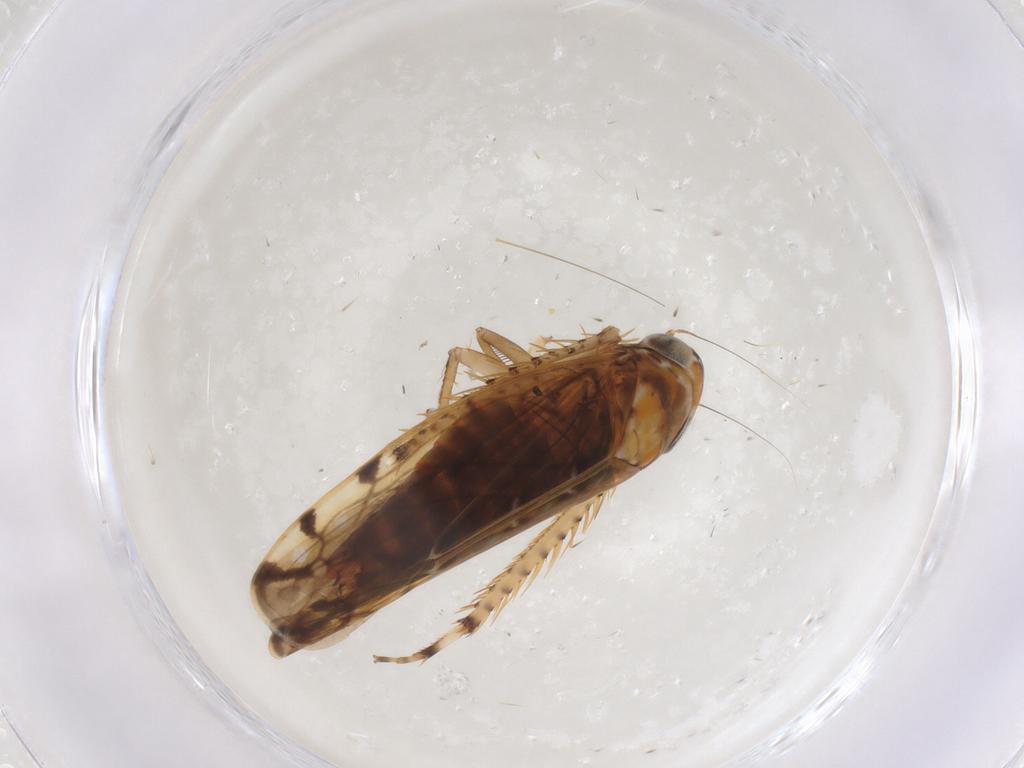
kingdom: Animalia
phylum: Arthropoda
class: Insecta
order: Hemiptera
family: Cicadellidae
